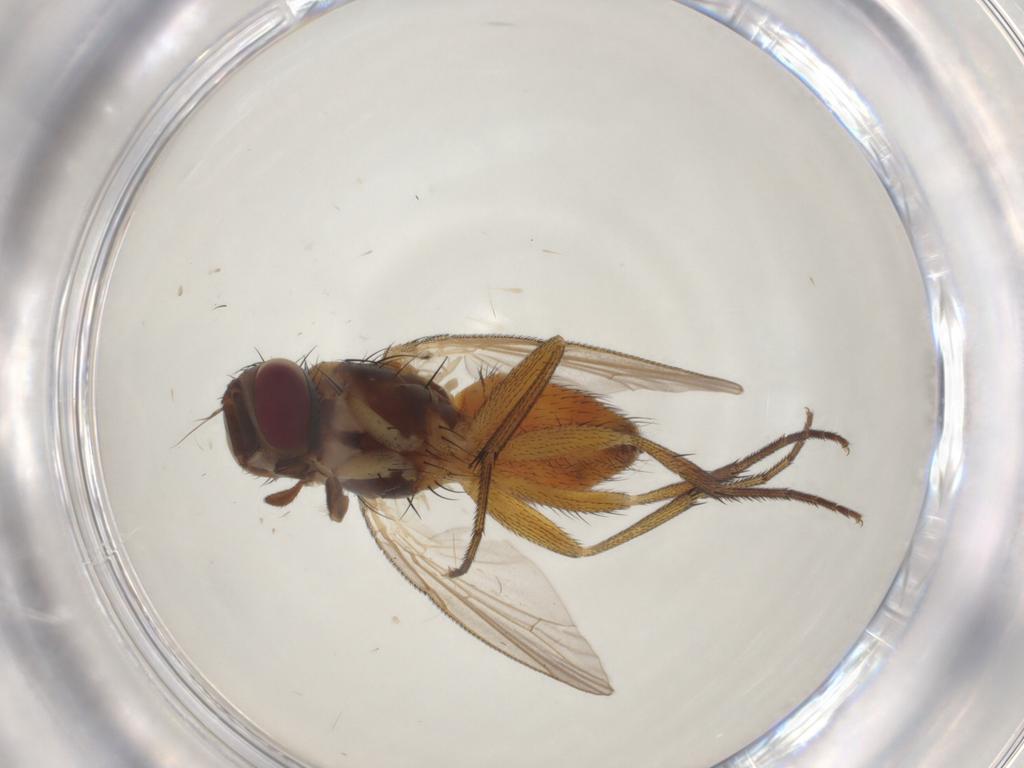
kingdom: Animalia
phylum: Arthropoda
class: Insecta
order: Diptera
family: Muscidae
